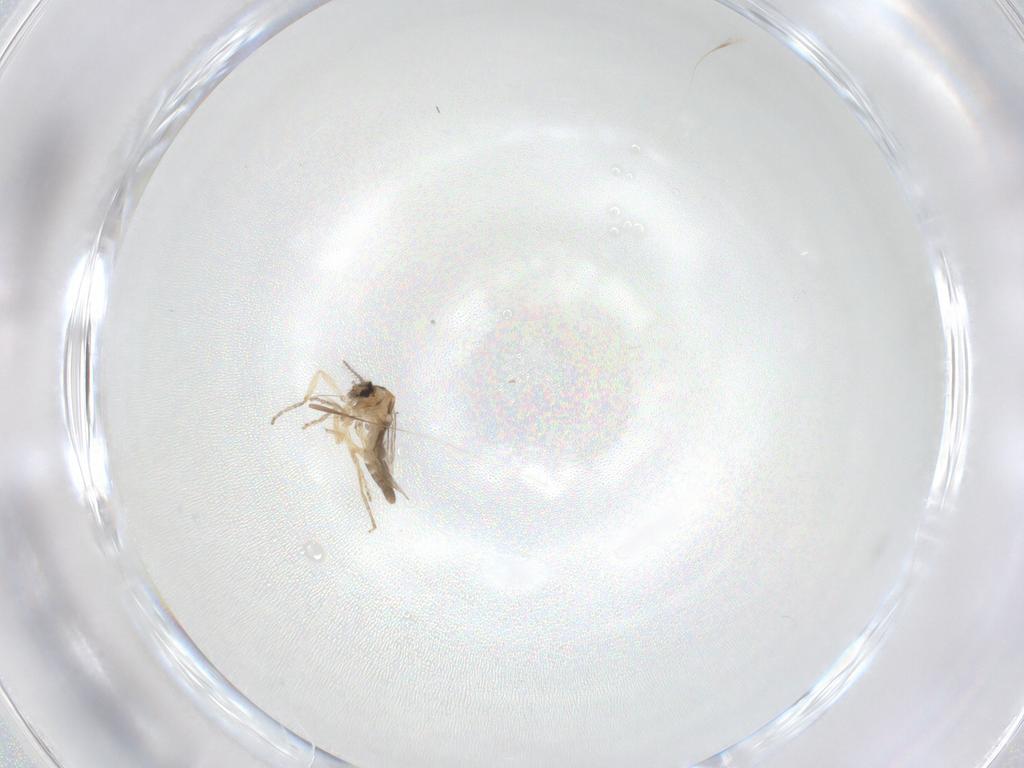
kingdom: Animalia
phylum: Arthropoda
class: Insecta
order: Diptera
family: Ceratopogonidae
